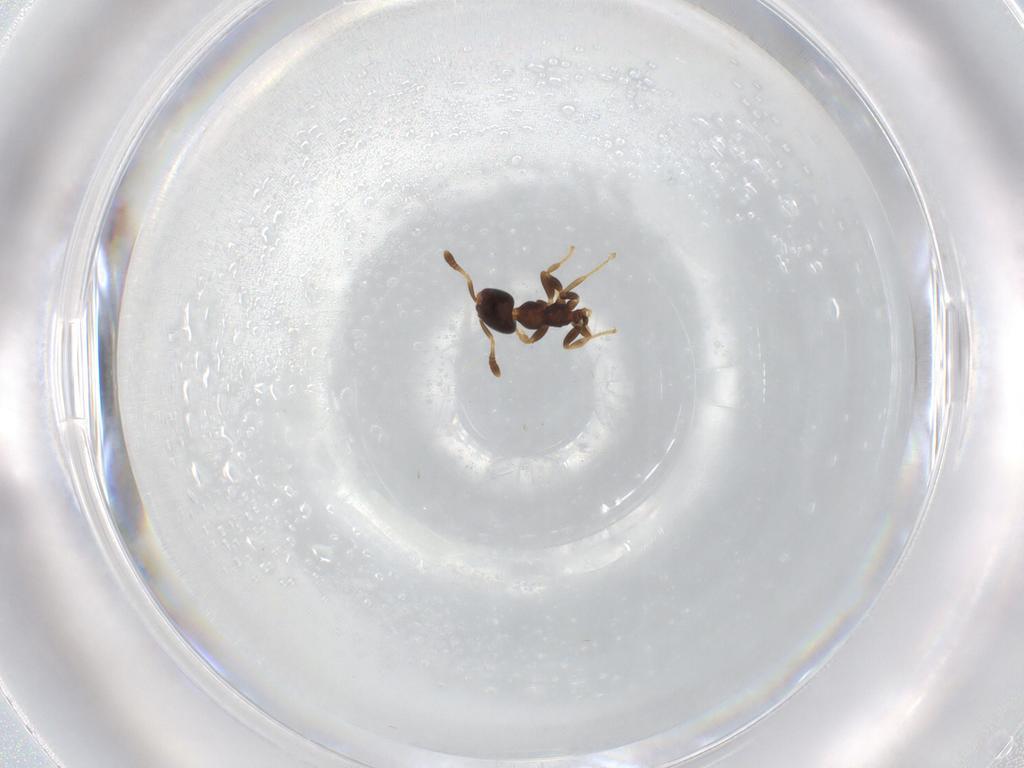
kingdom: Animalia
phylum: Arthropoda
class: Insecta
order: Hymenoptera
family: Formicidae
